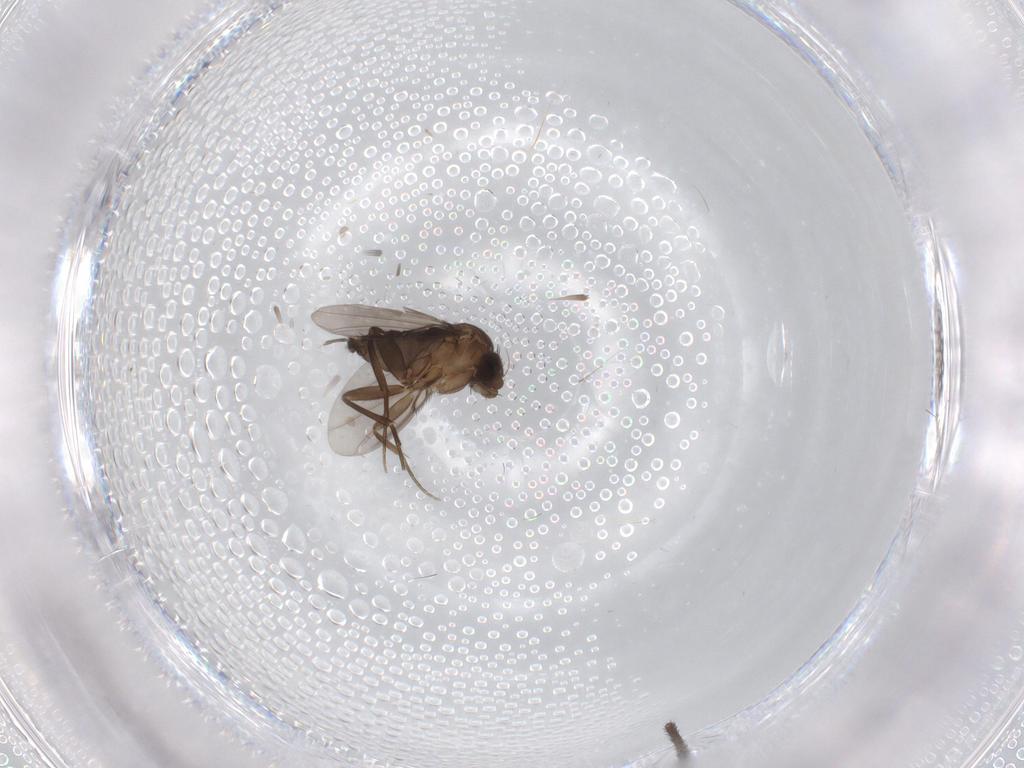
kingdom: Animalia
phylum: Arthropoda
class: Insecta
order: Diptera
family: Phoridae
